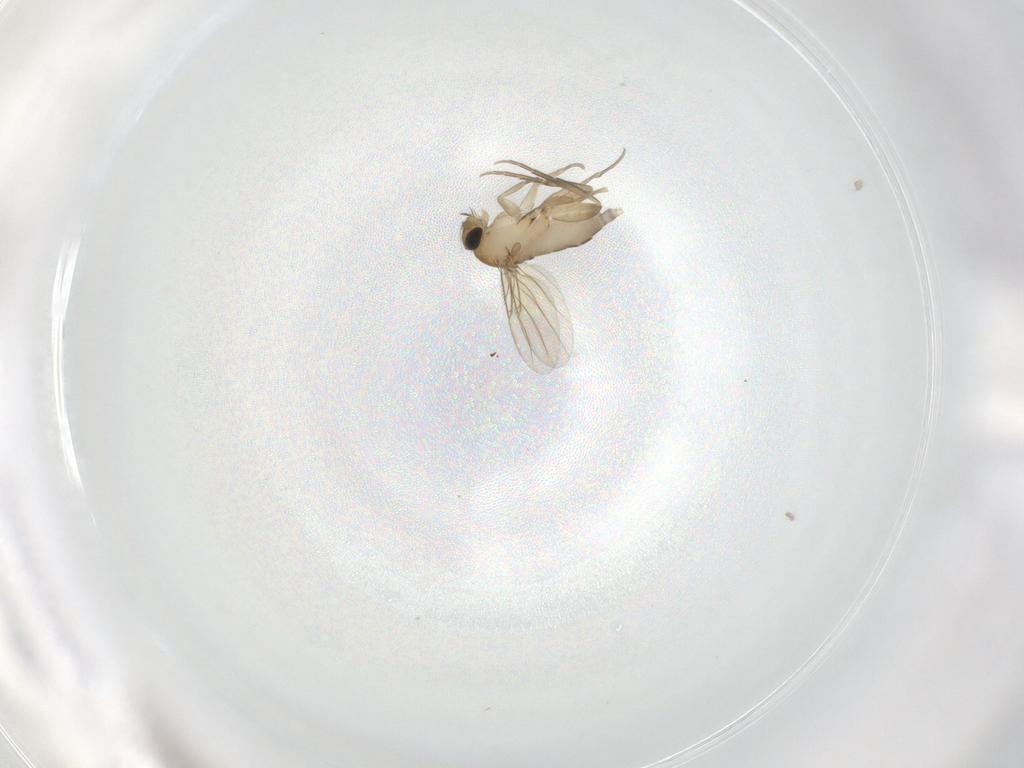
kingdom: Animalia
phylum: Arthropoda
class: Insecta
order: Diptera
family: Phoridae
